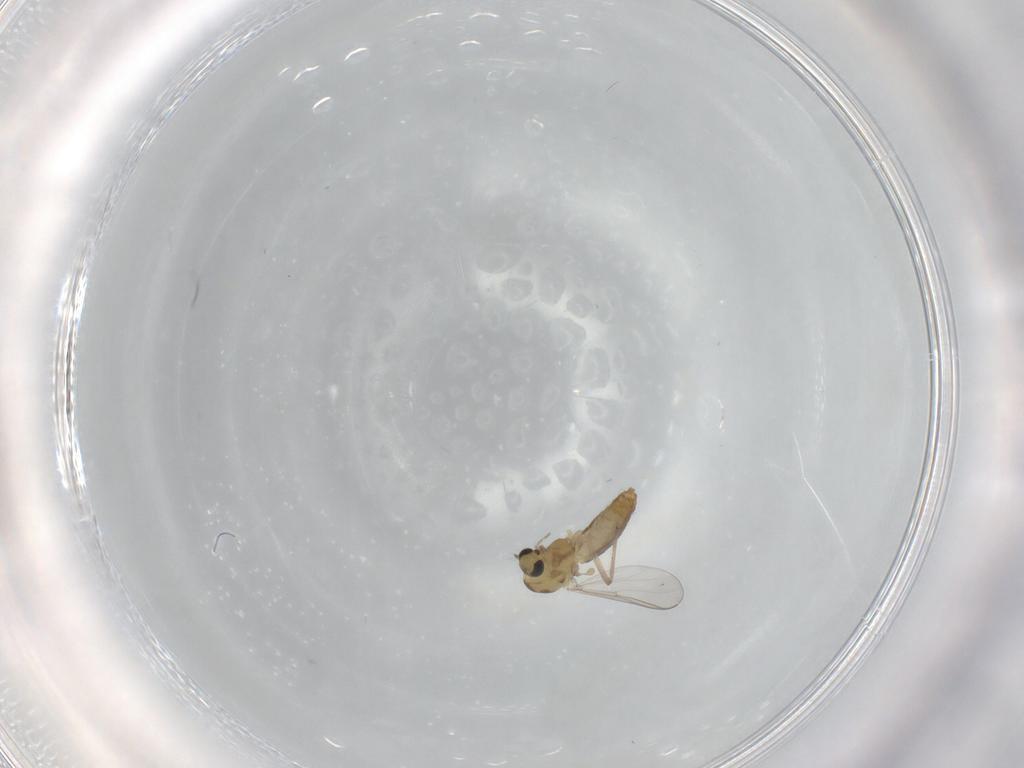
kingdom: Animalia
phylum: Arthropoda
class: Insecta
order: Diptera
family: Chironomidae
